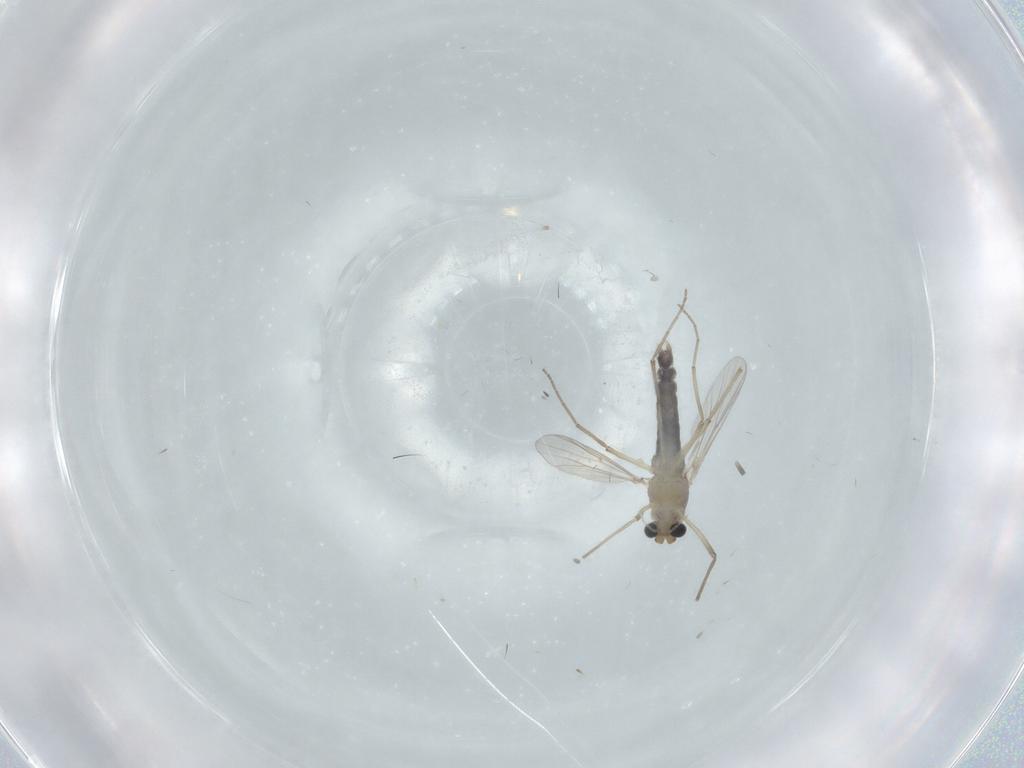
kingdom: Animalia
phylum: Arthropoda
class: Insecta
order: Diptera
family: Chironomidae
